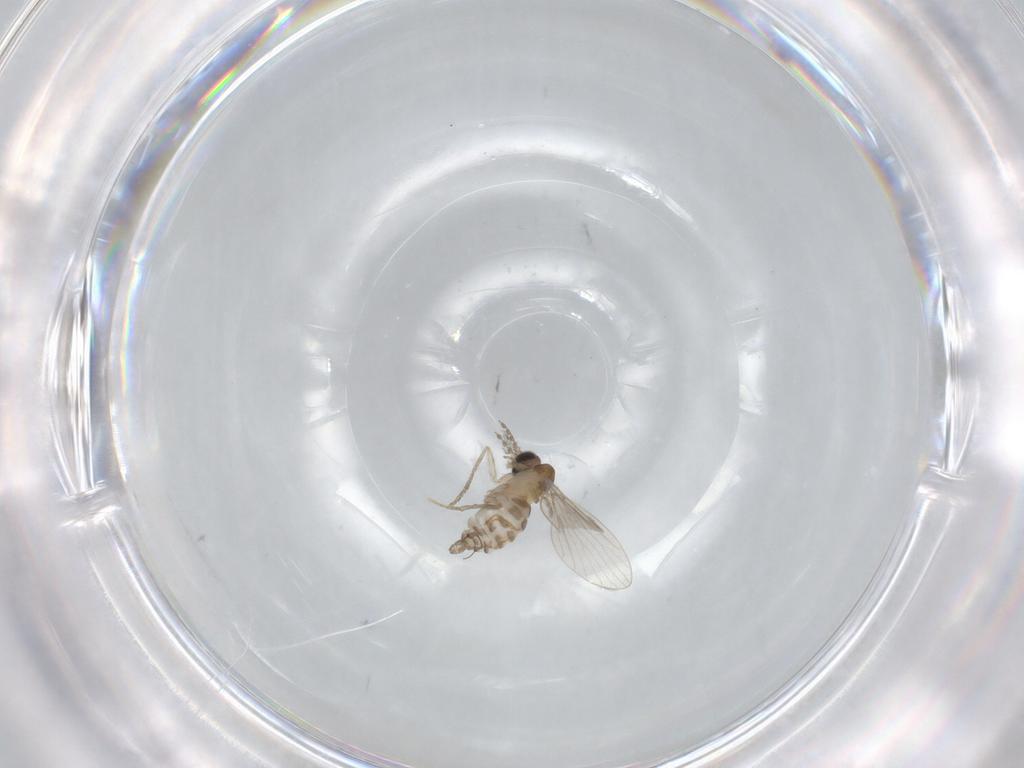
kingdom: Animalia
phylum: Arthropoda
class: Insecta
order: Diptera
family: Psychodidae
